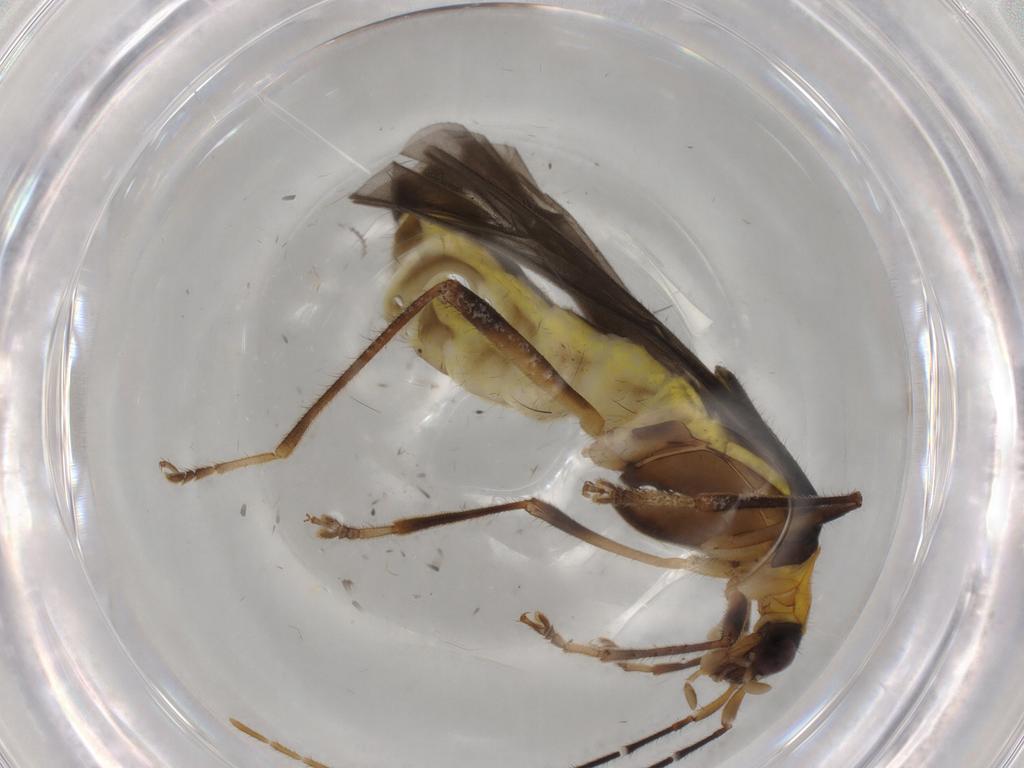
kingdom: Animalia
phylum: Arthropoda
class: Insecta
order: Coleoptera
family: Cantharidae
